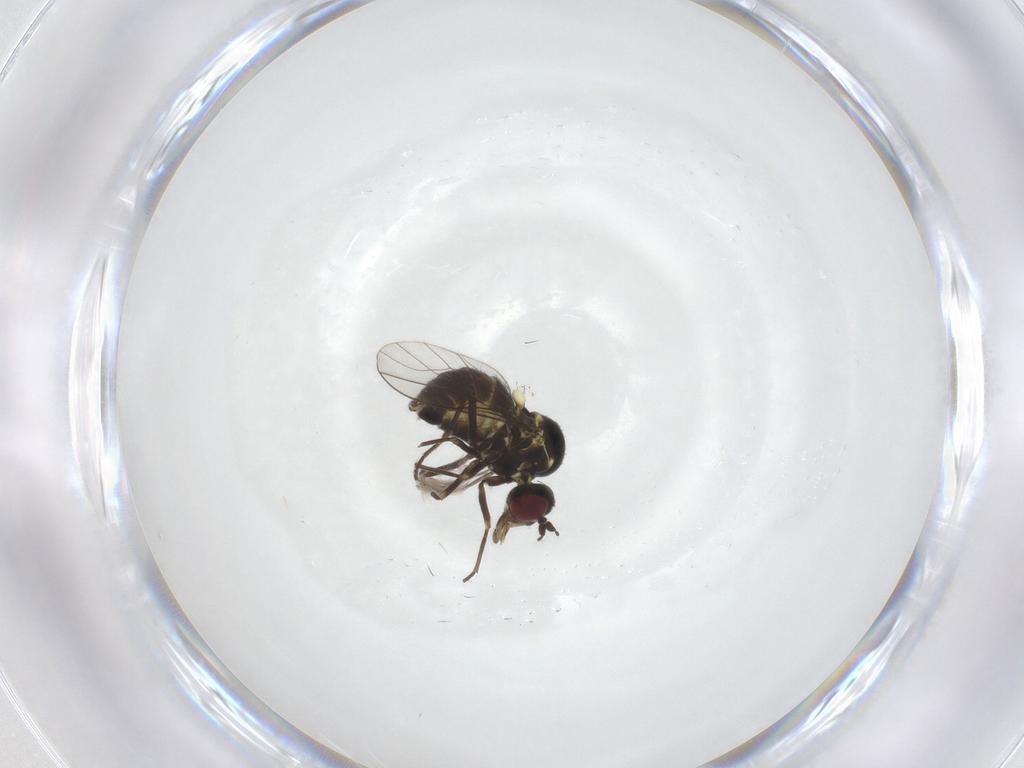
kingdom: Animalia
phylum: Arthropoda
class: Insecta
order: Diptera
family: Heleomyzidae
